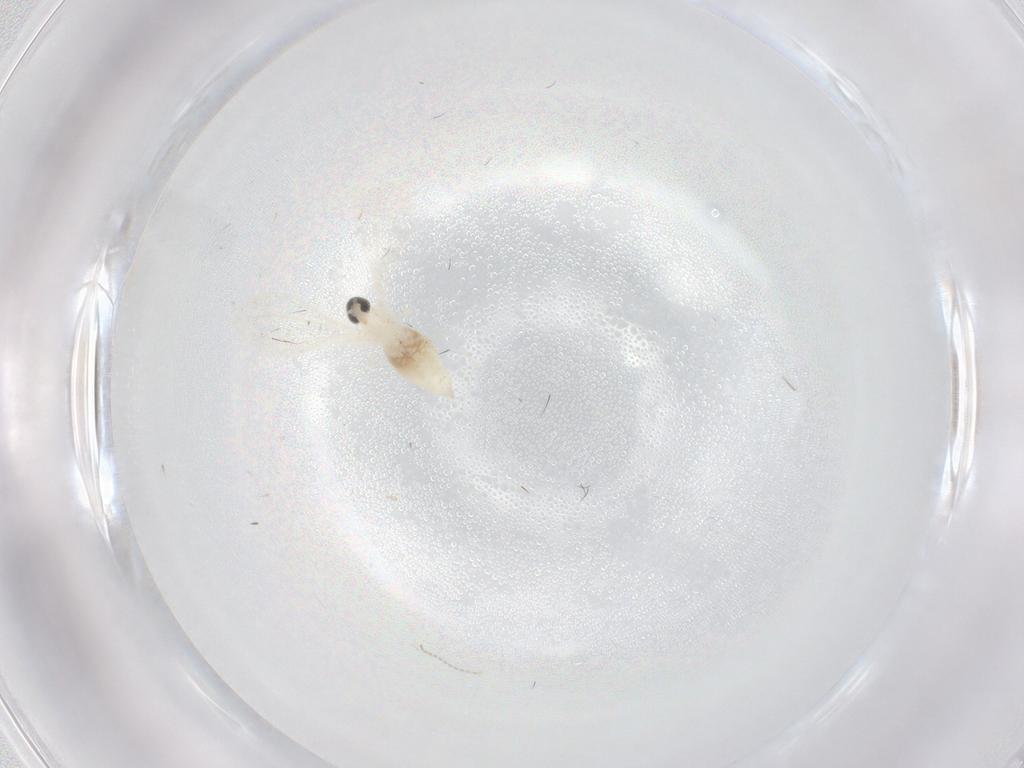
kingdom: Animalia
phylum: Arthropoda
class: Insecta
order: Diptera
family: Cecidomyiidae
